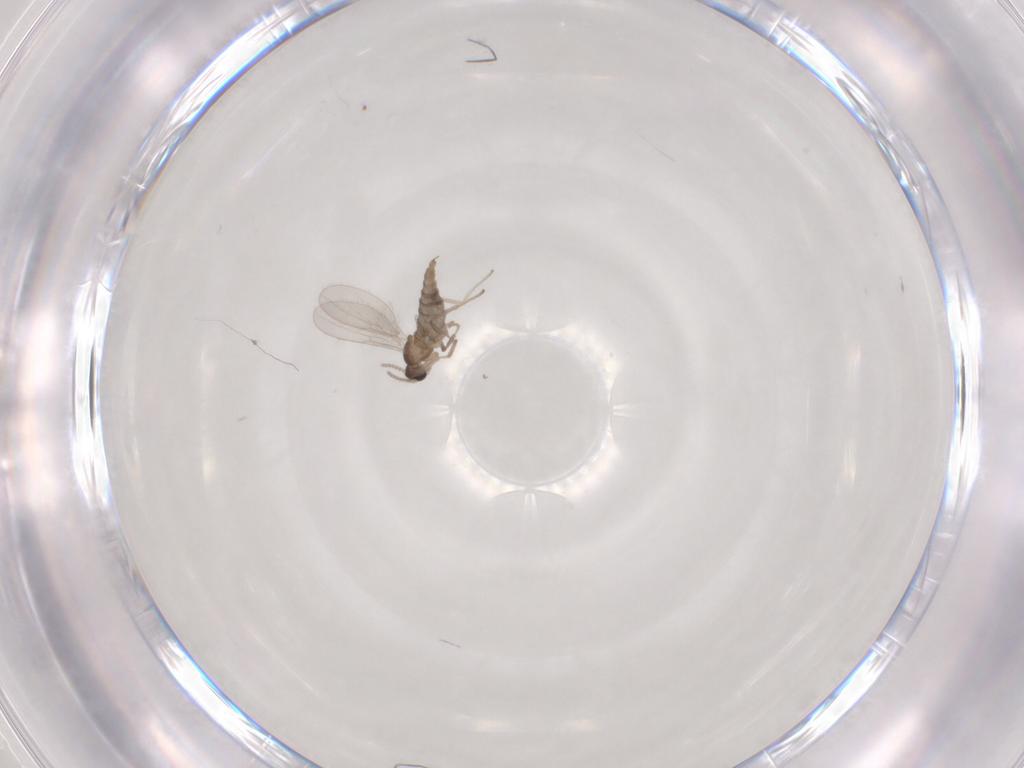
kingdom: Animalia
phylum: Arthropoda
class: Insecta
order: Diptera
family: Cecidomyiidae
